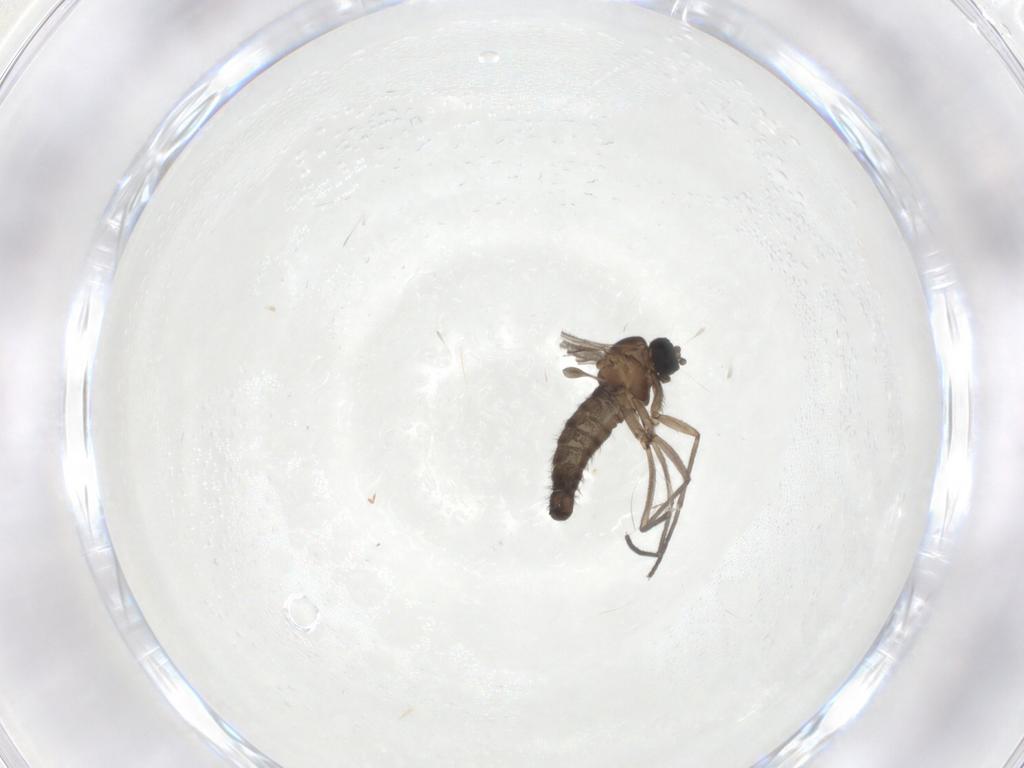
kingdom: Animalia
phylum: Arthropoda
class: Insecta
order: Diptera
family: Sciaridae
